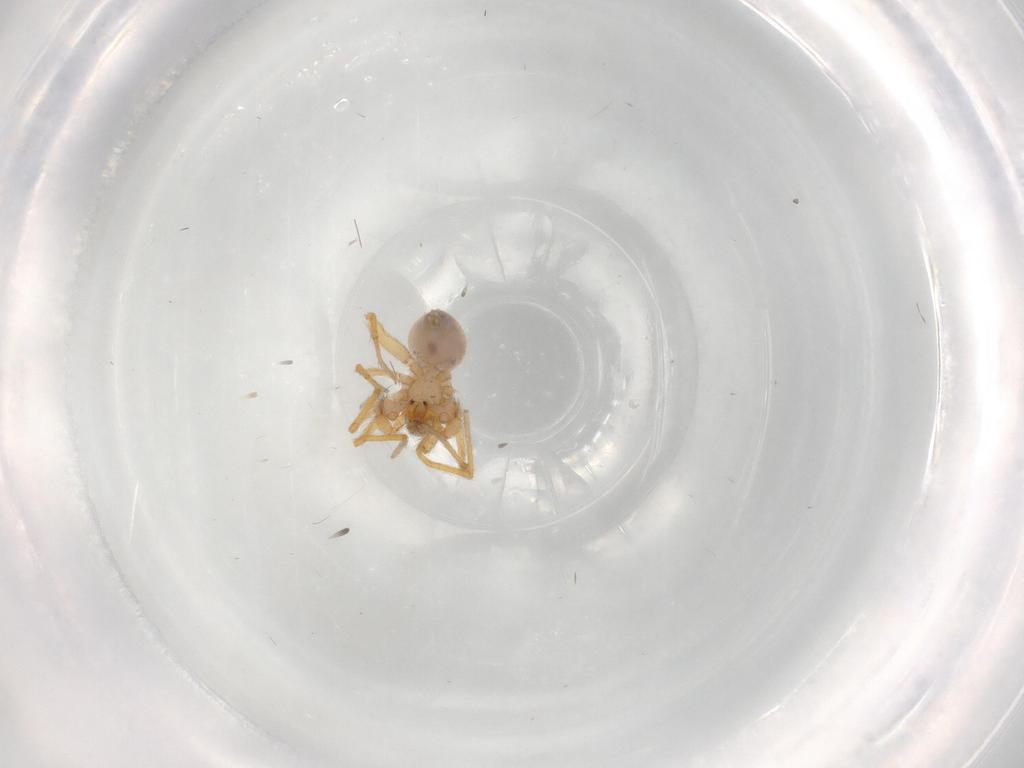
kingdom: Animalia
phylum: Arthropoda
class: Arachnida
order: Araneae
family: Oonopidae
